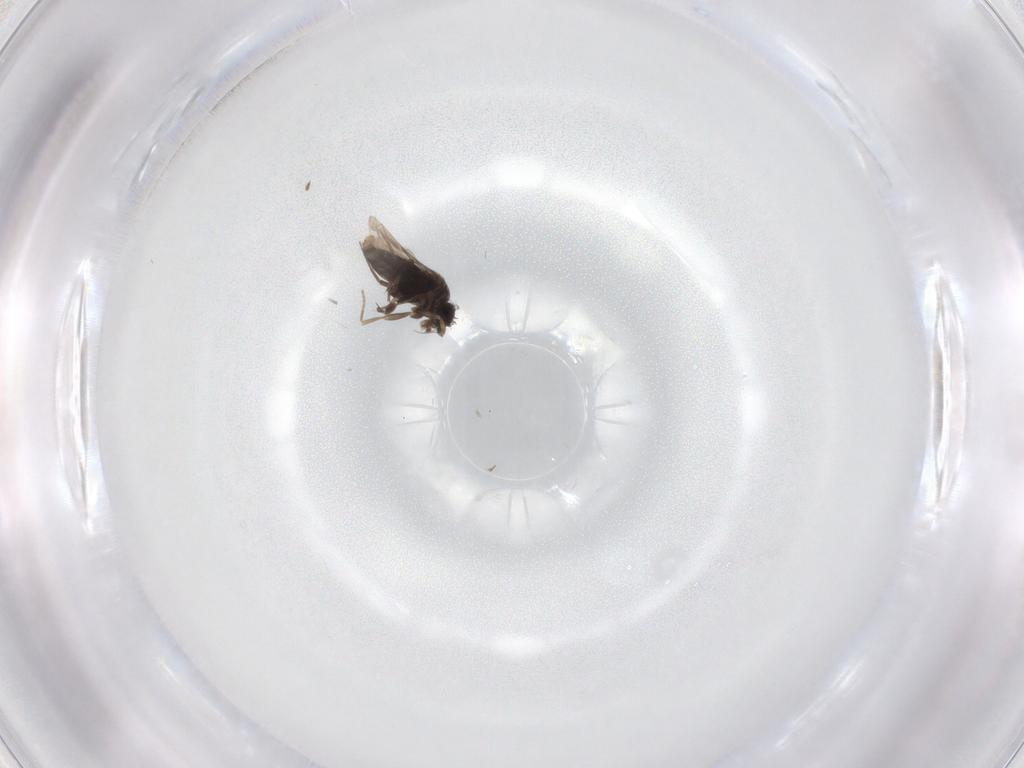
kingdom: Animalia
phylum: Arthropoda
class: Insecta
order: Diptera
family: Phoridae
